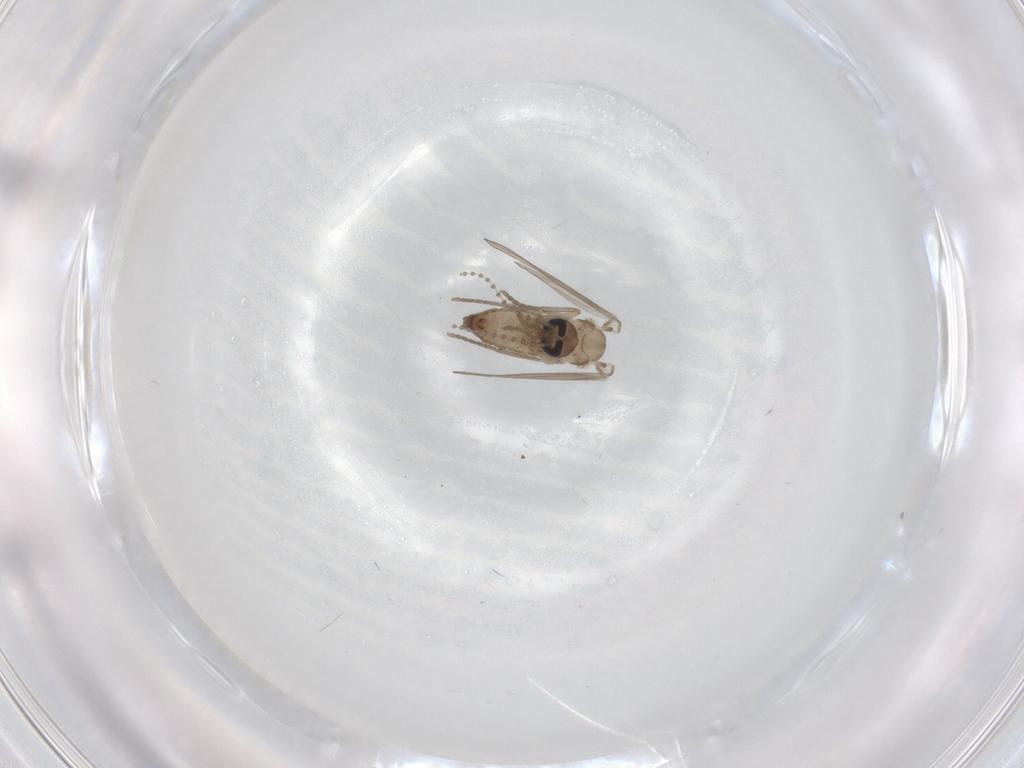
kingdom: Animalia
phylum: Arthropoda
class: Insecta
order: Diptera
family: Psychodidae
